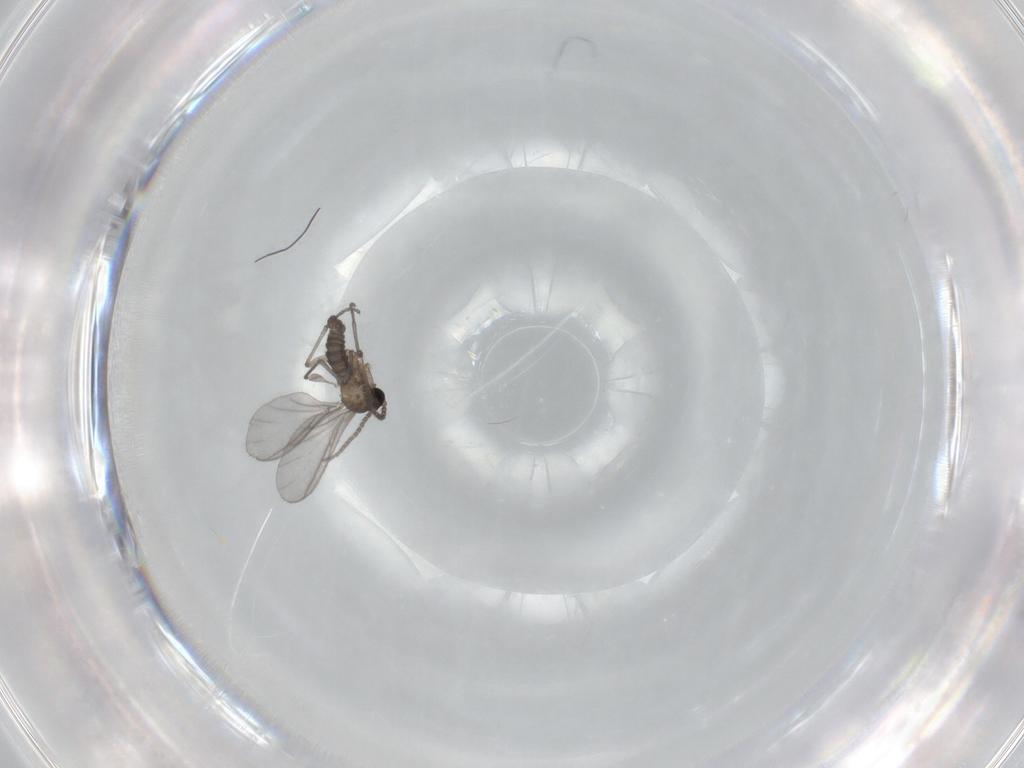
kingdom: Animalia
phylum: Arthropoda
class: Insecta
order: Diptera
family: Sciaridae
